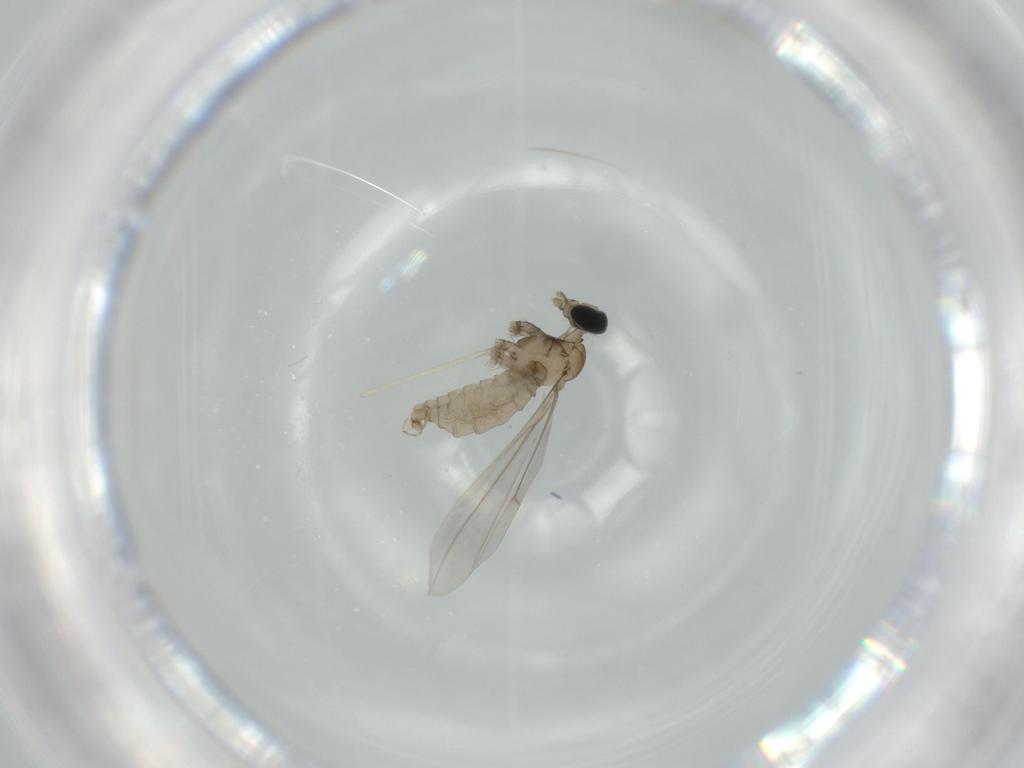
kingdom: Animalia
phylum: Arthropoda
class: Insecta
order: Diptera
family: Cecidomyiidae
